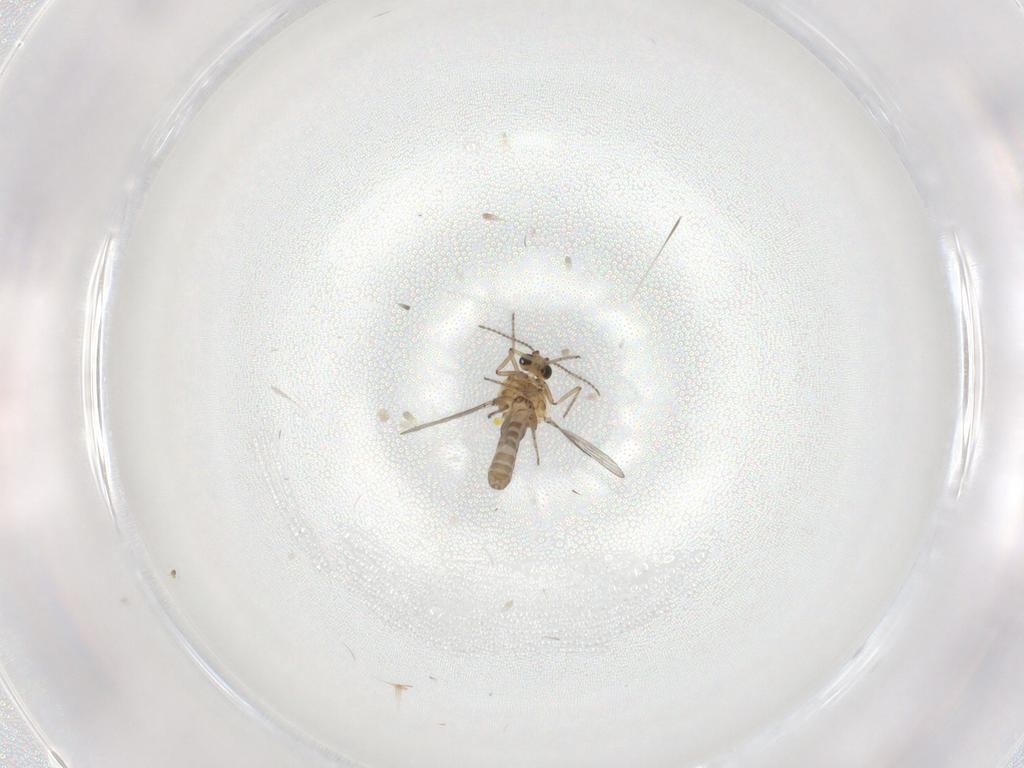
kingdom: Animalia
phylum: Arthropoda
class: Insecta
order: Diptera
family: Ceratopogonidae
